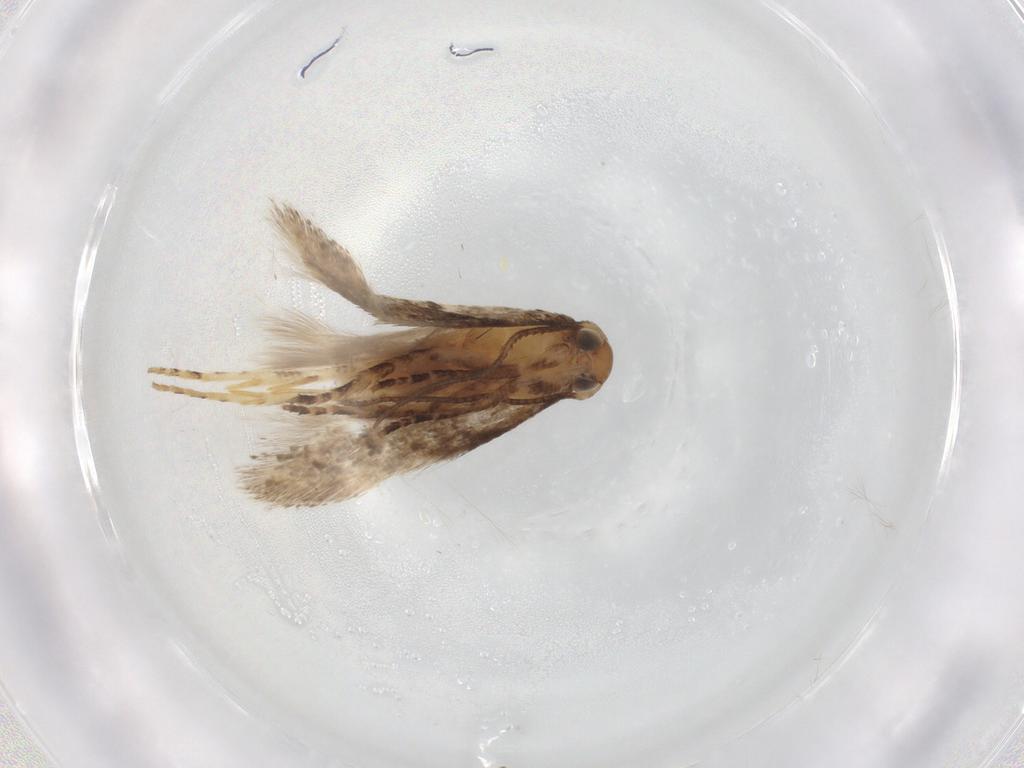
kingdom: Animalia
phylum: Arthropoda
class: Insecta
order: Lepidoptera
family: Gelechiidae
